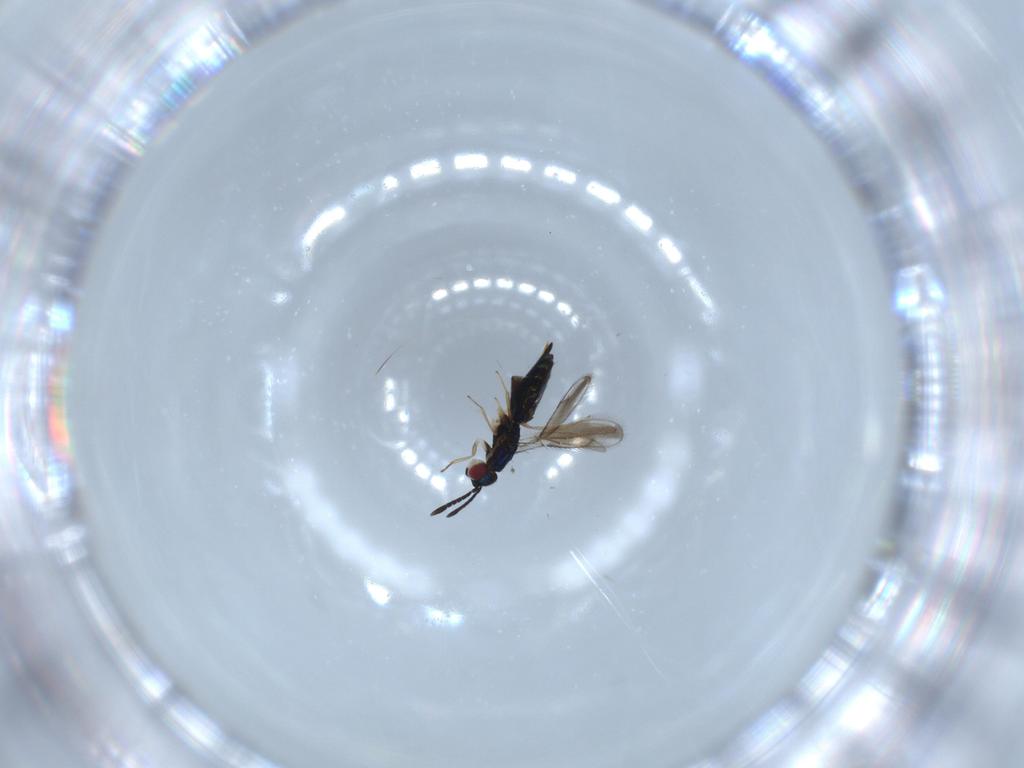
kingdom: Animalia
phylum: Arthropoda
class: Insecta
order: Hymenoptera
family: Pteromalidae
